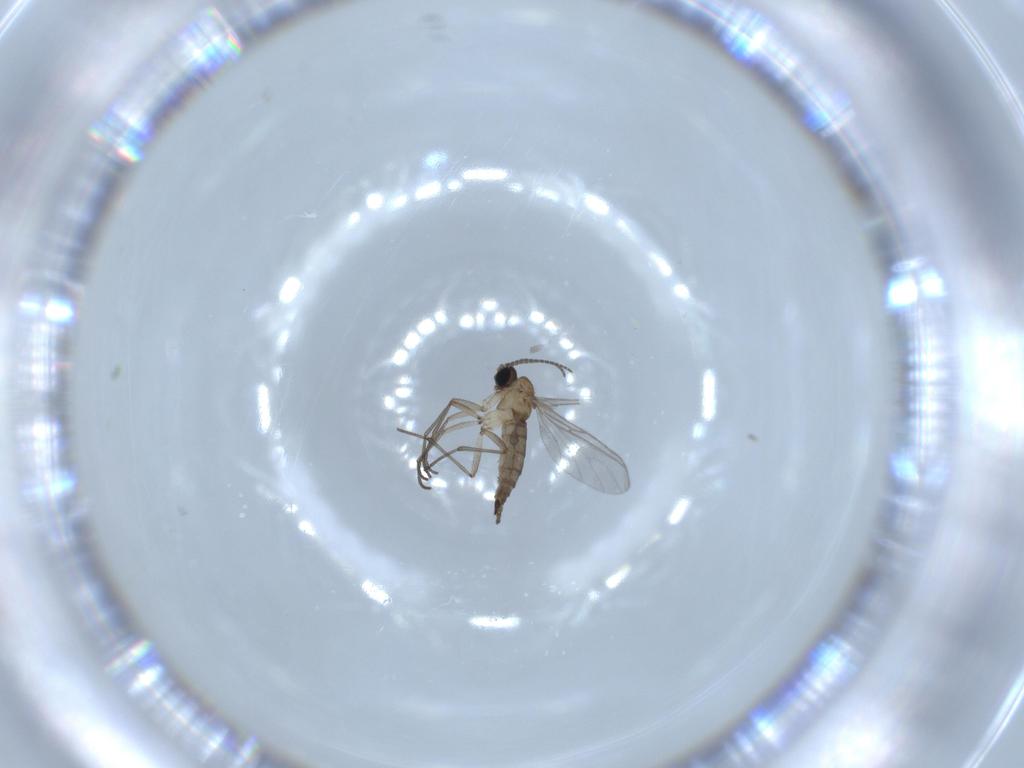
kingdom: Animalia
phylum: Arthropoda
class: Insecta
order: Diptera
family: Sciaridae
